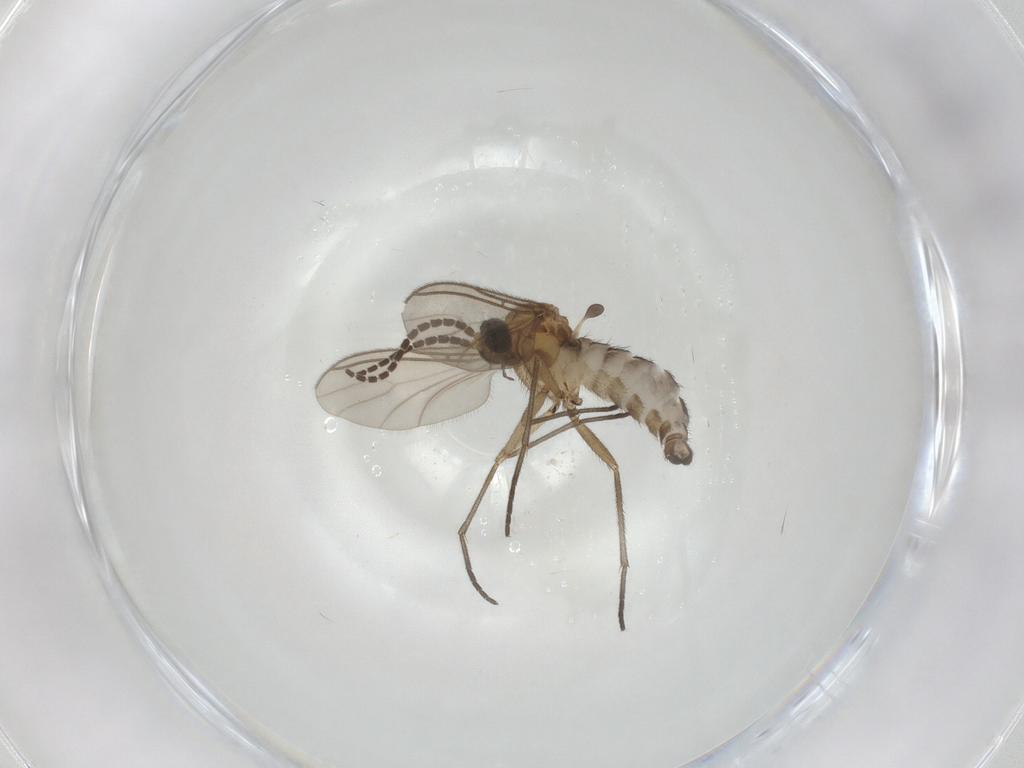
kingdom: Animalia
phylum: Arthropoda
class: Insecta
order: Diptera
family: Sciaridae
